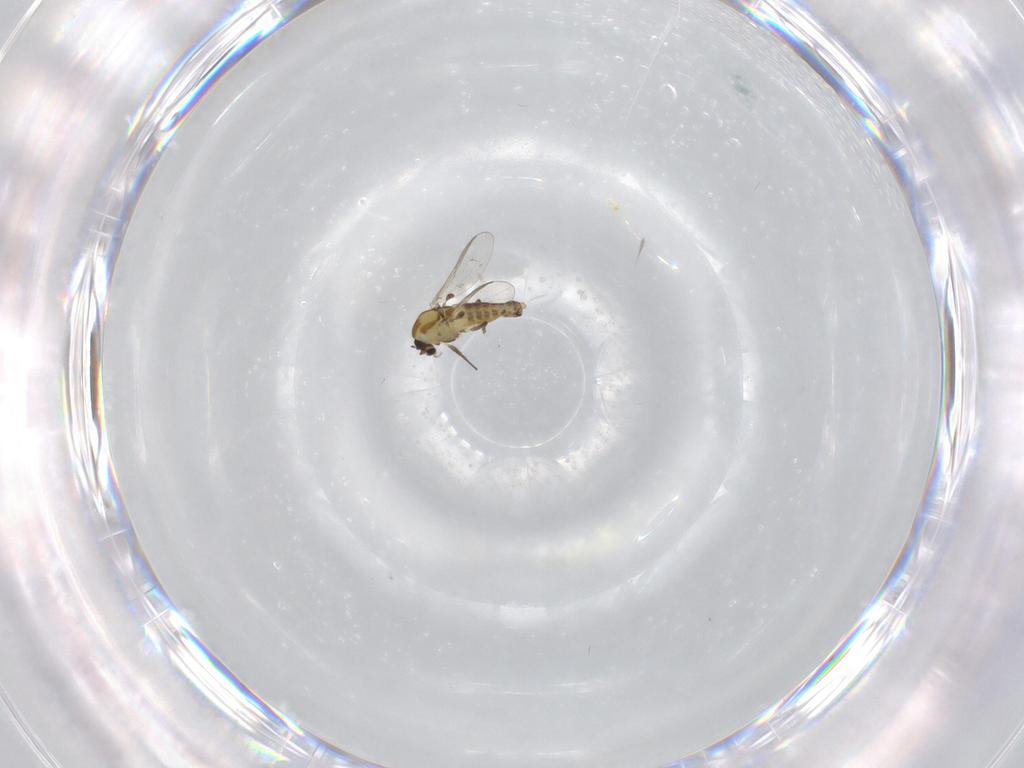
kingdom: Animalia
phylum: Arthropoda
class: Insecta
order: Diptera
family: Chironomidae
